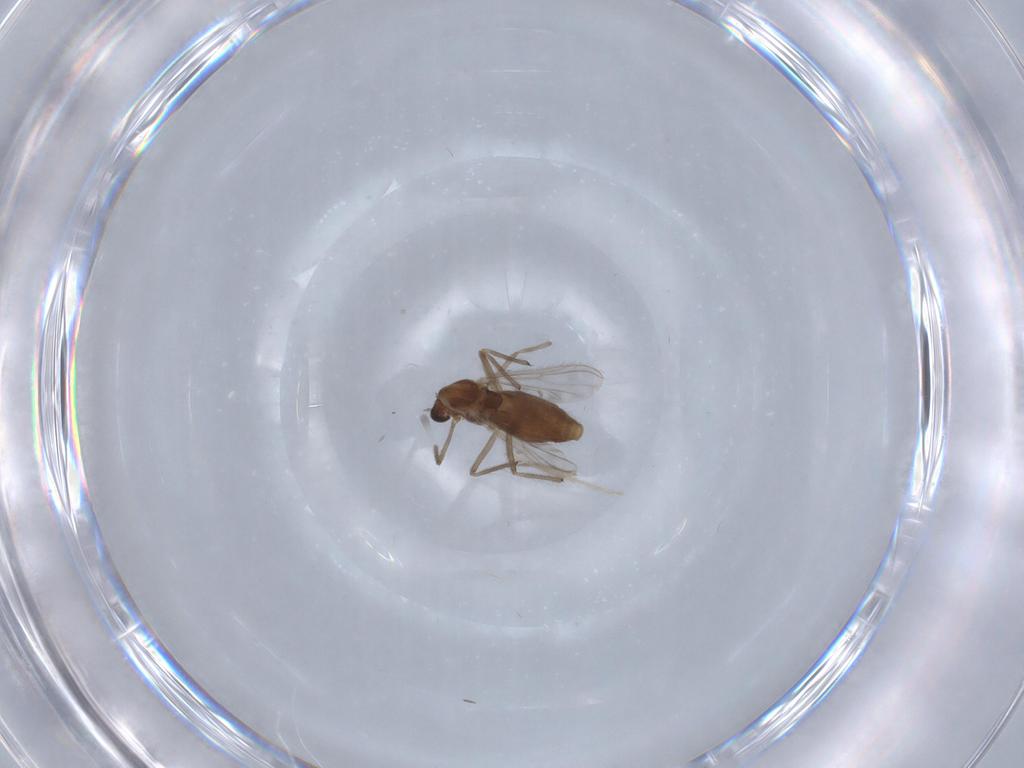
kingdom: Animalia
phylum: Arthropoda
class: Insecta
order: Diptera
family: Chironomidae
